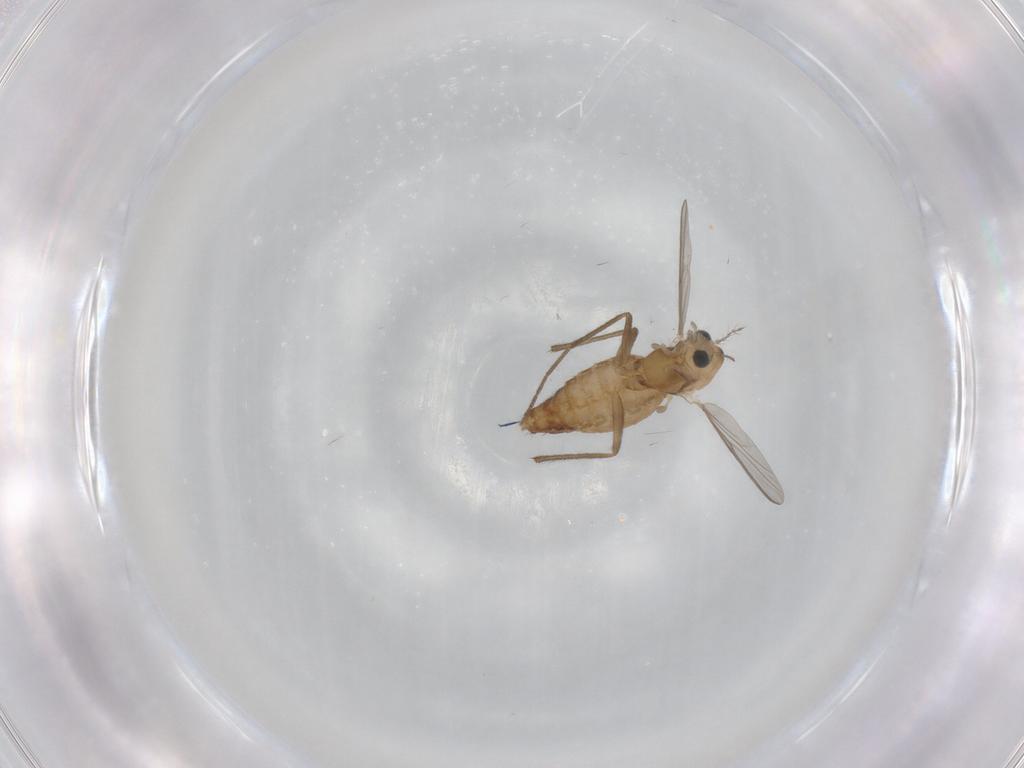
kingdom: Animalia
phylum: Arthropoda
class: Insecta
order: Diptera
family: Chironomidae
